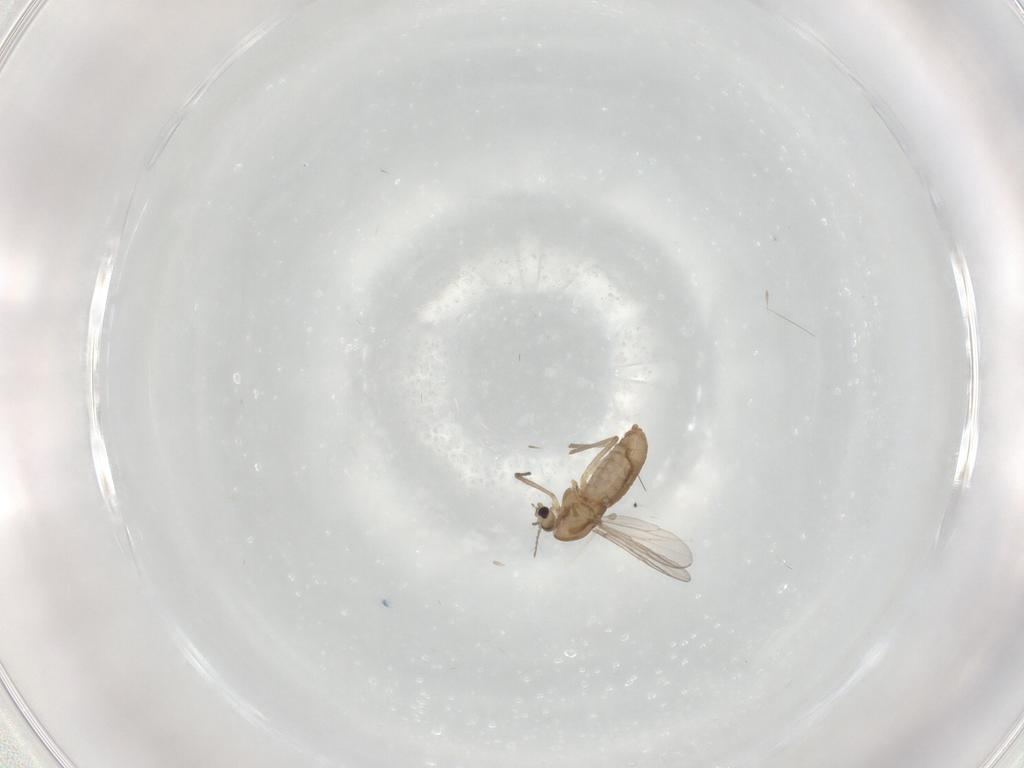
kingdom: Animalia
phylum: Arthropoda
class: Insecta
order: Diptera
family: Chironomidae
